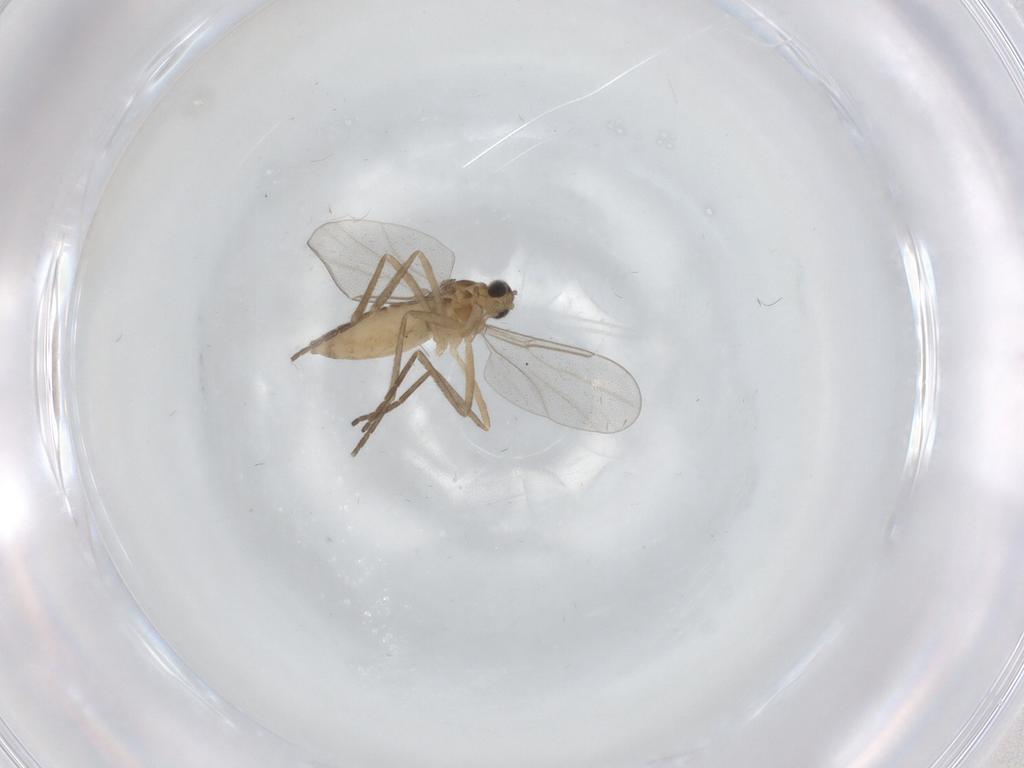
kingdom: Animalia
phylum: Arthropoda
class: Insecta
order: Diptera
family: Cecidomyiidae
